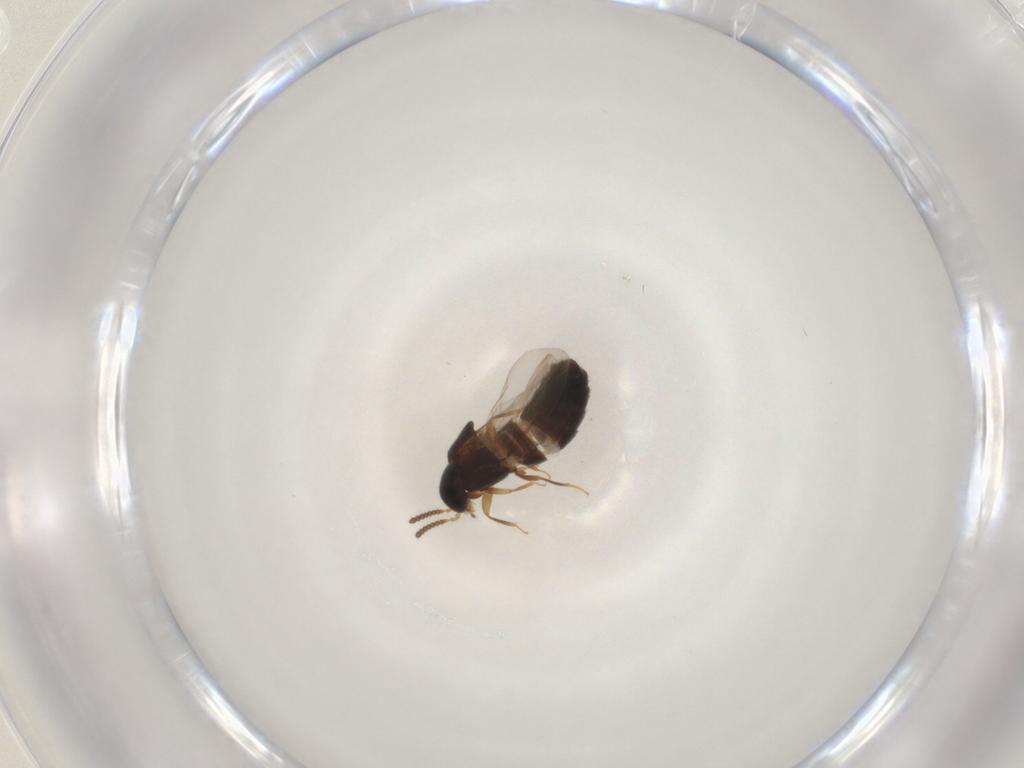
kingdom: Animalia
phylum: Arthropoda
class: Insecta
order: Coleoptera
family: Staphylinidae
